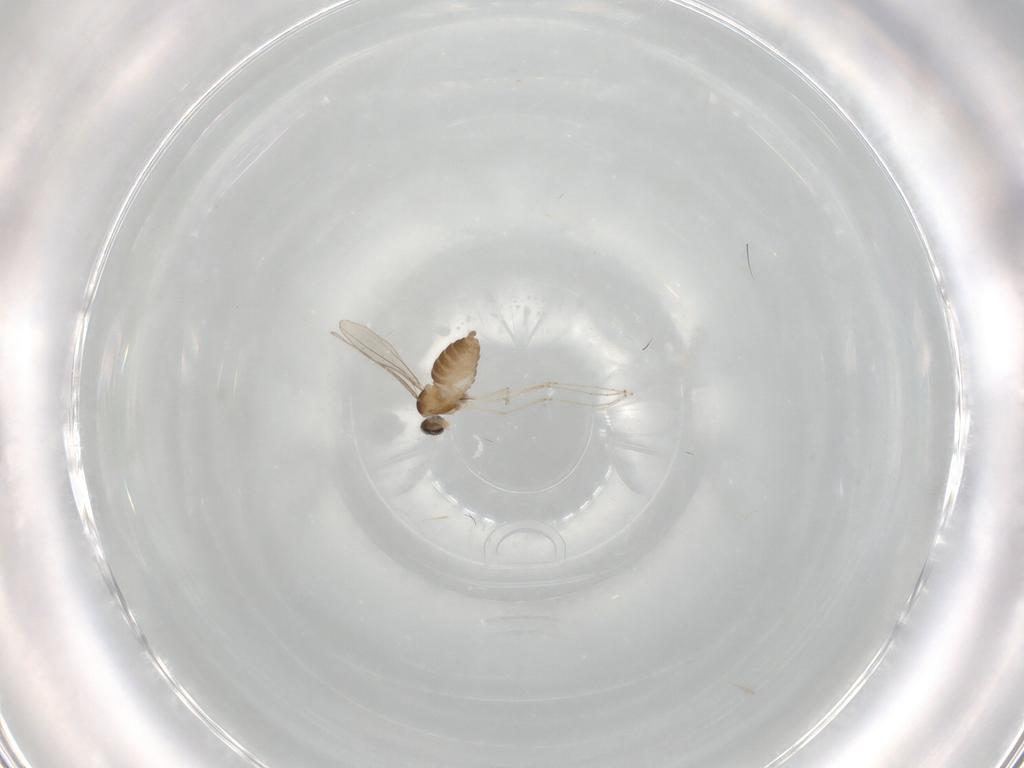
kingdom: Animalia
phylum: Arthropoda
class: Insecta
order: Diptera
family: Cecidomyiidae
